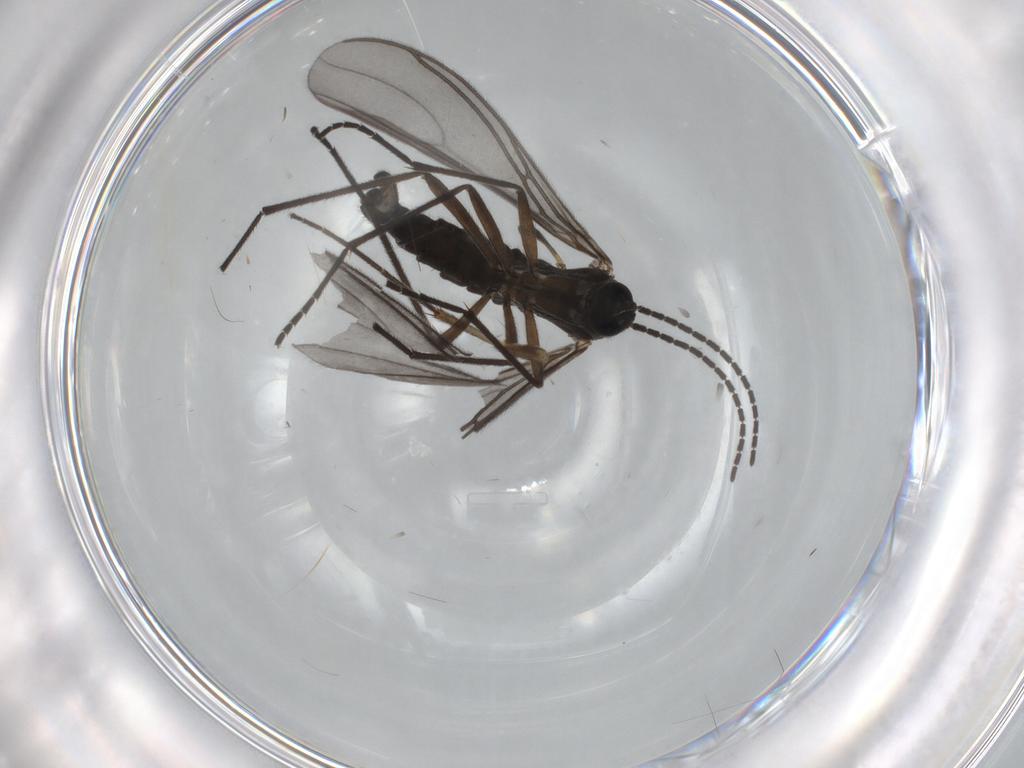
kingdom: Animalia
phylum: Arthropoda
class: Insecta
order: Diptera
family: Sciaridae
